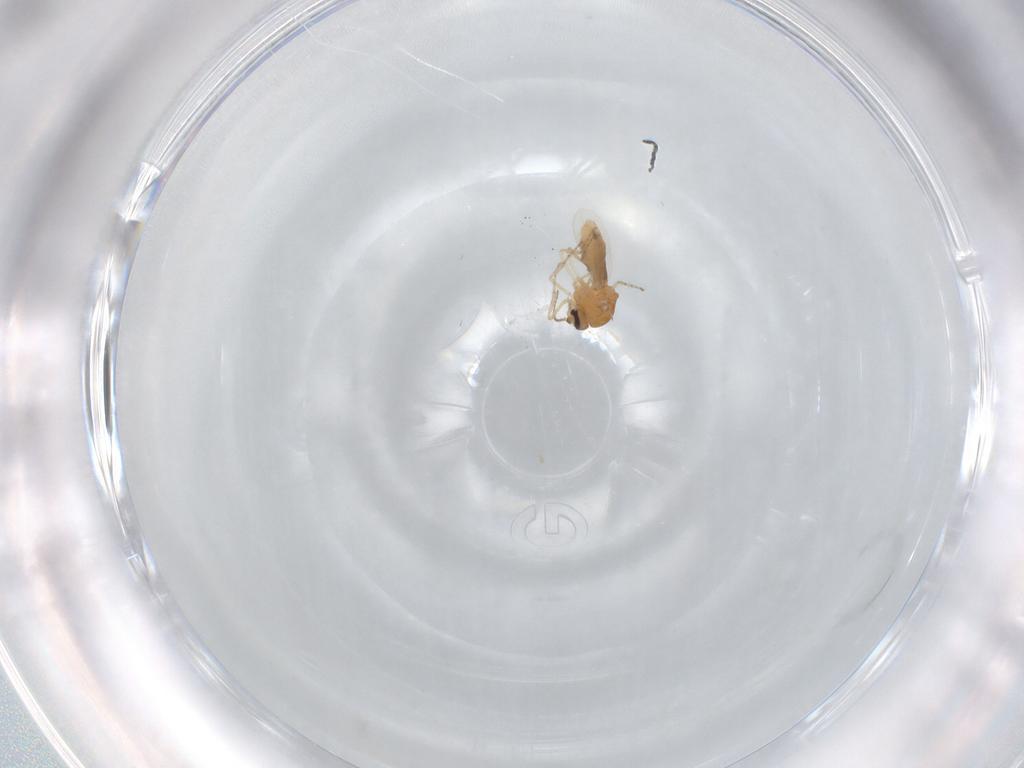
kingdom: Animalia
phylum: Arthropoda
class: Insecta
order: Diptera
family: Ceratopogonidae
